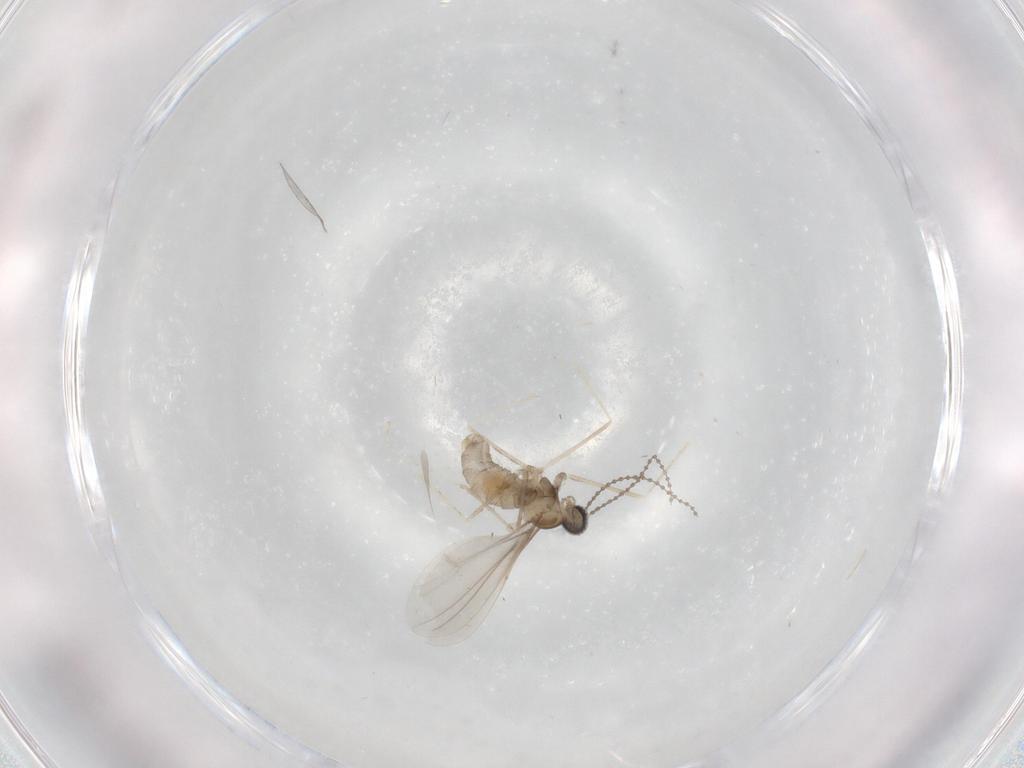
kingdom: Animalia
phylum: Arthropoda
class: Insecta
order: Diptera
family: Cecidomyiidae
